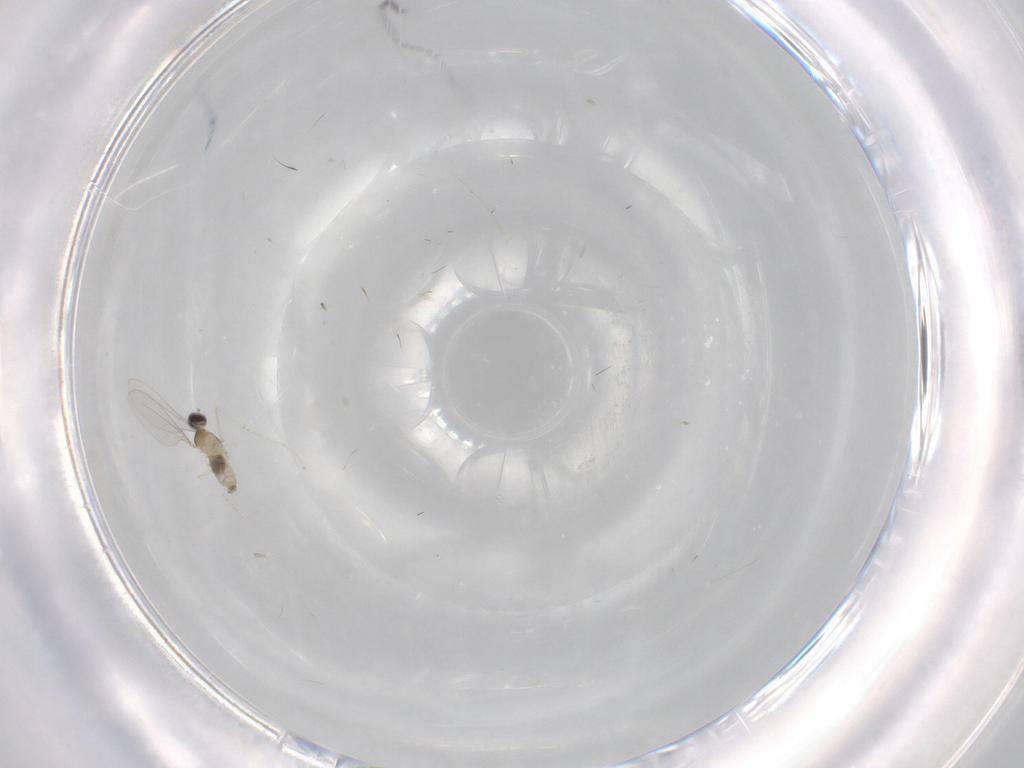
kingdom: Animalia
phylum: Arthropoda
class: Insecta
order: Diptera
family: Cecidomyiidae
